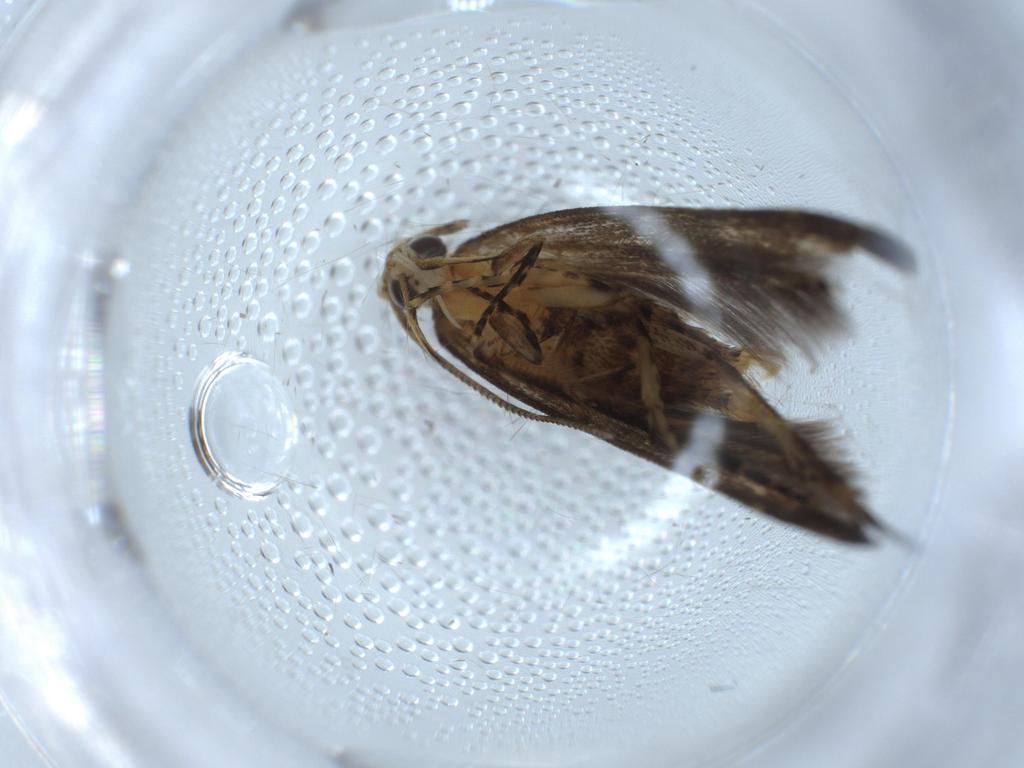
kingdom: Animalia
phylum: Arthropoda
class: Insecta
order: Lepidoptera
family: Cosmopterigidae
